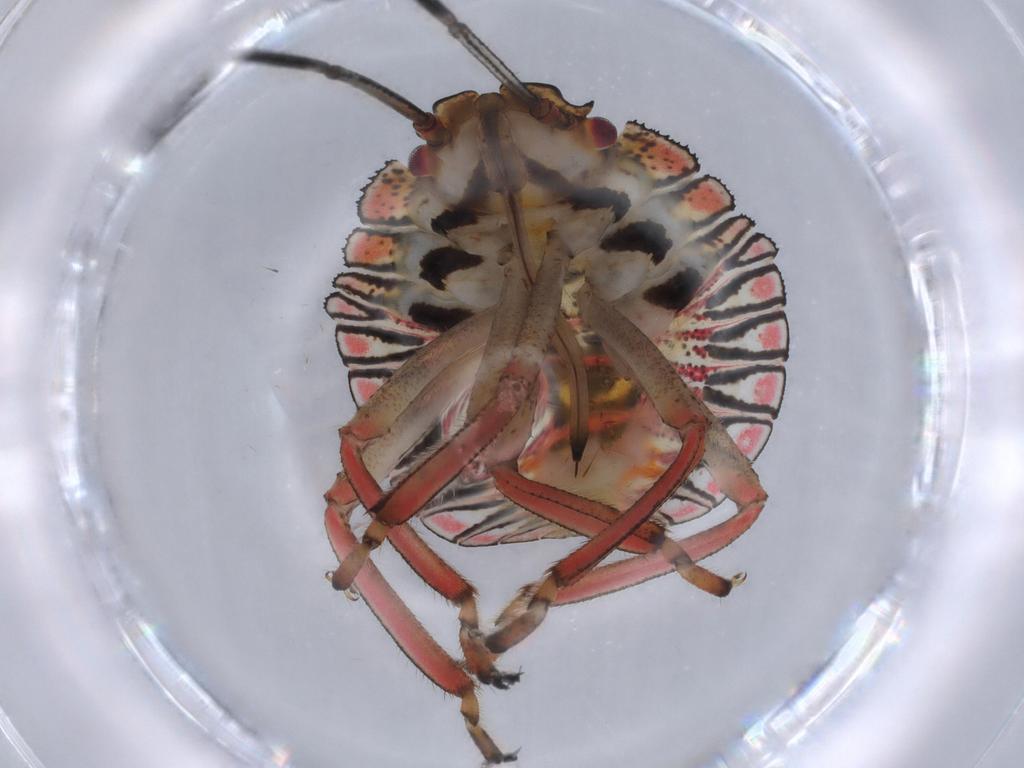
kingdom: Animalia
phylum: Arthropoda
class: Insecta
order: Hemiptera
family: Pentatomidae
